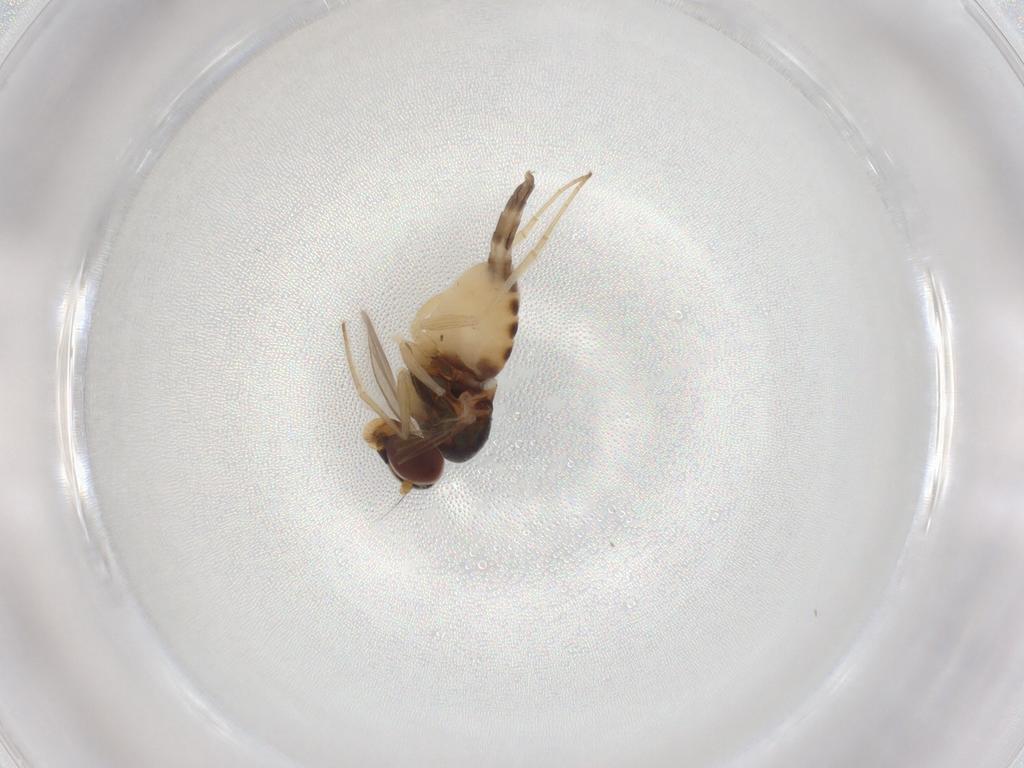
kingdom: Animalia
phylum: Arthropoda
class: Insecta
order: Diptera
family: Dolichopodidae
